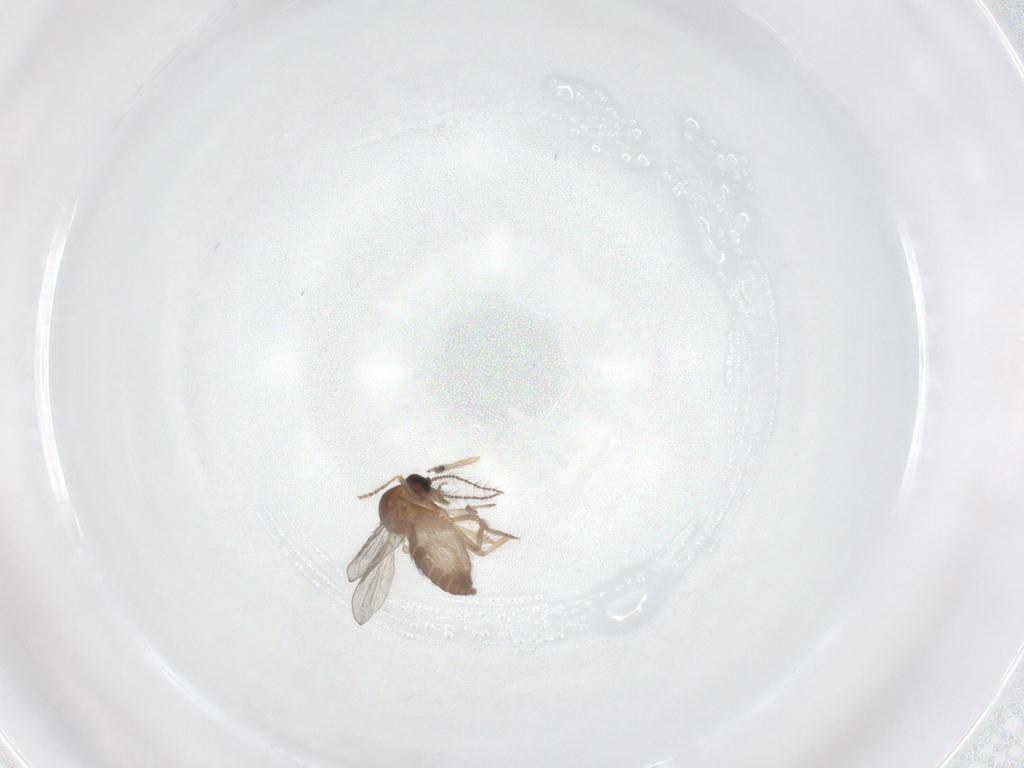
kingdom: Animalia
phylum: Arthropoda
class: Insecta
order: Diptera
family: Ceratopogonidae
